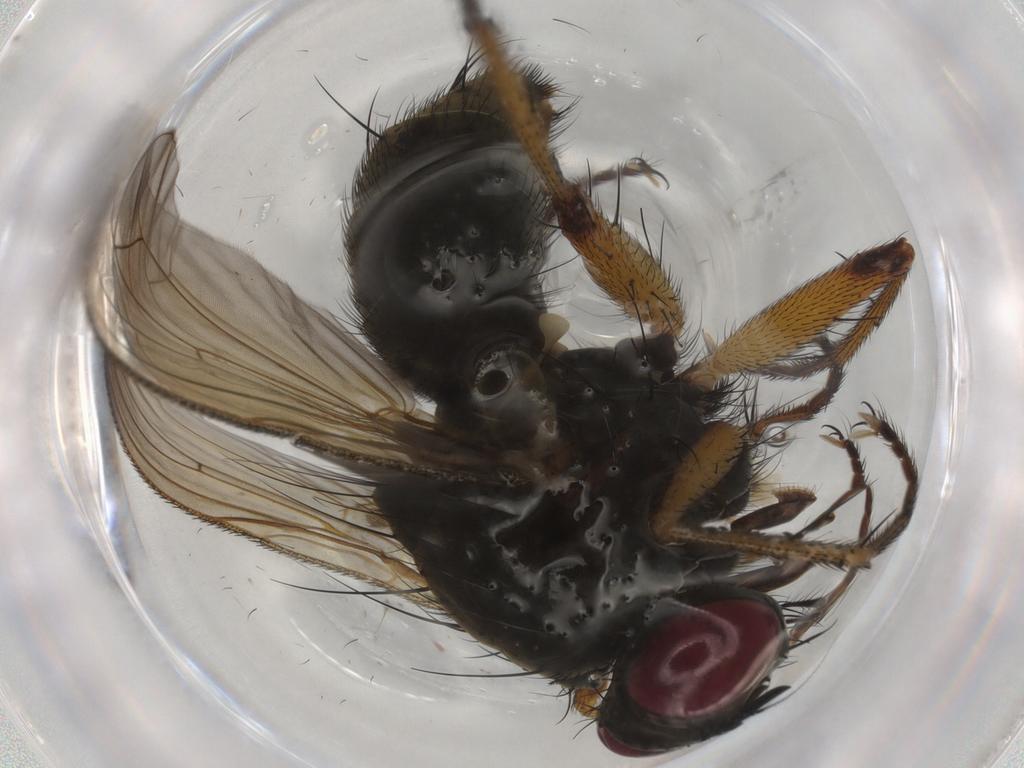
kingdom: Animalia
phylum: Arthropoda
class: Insecta
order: Diptera
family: Muscidae
